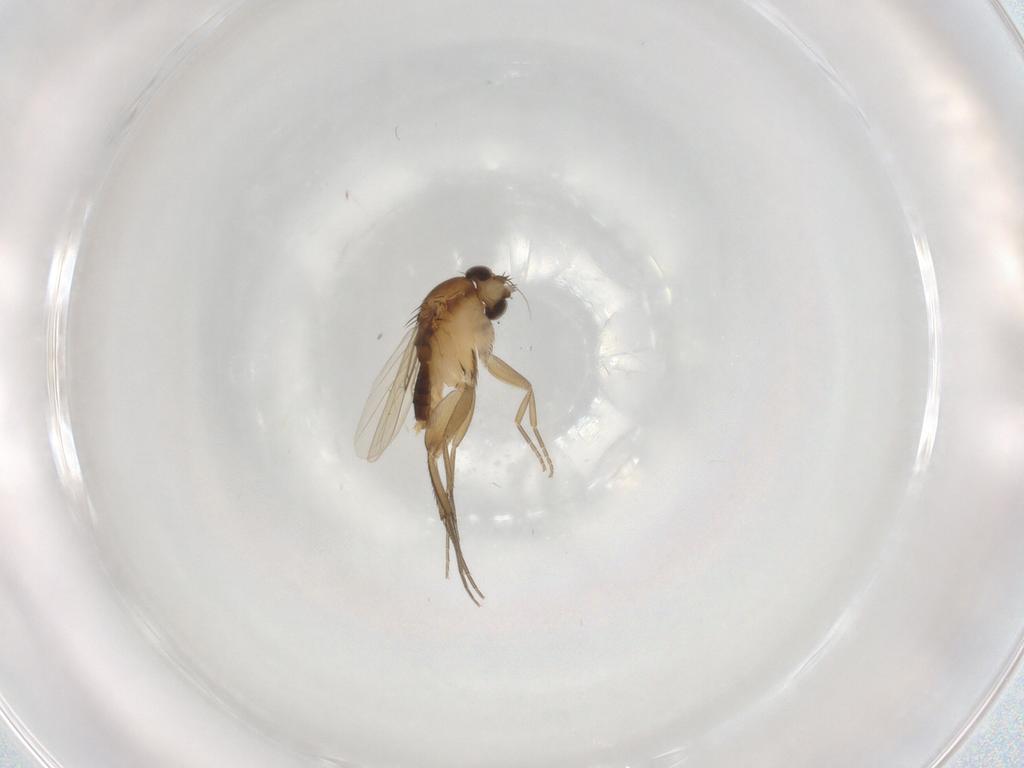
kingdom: Animalia
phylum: Arthropoda
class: Insecta
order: Diptera
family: Phoridae
